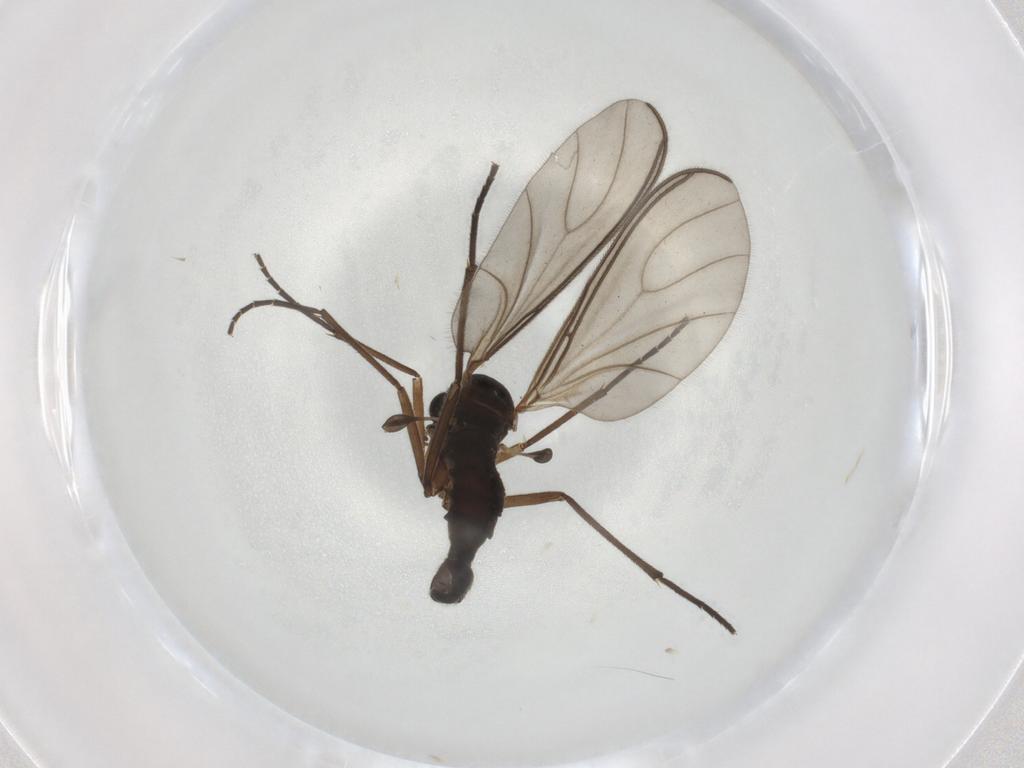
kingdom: Animalia
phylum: Arthropoda
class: Insecta
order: Diptera
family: Sciaridae
